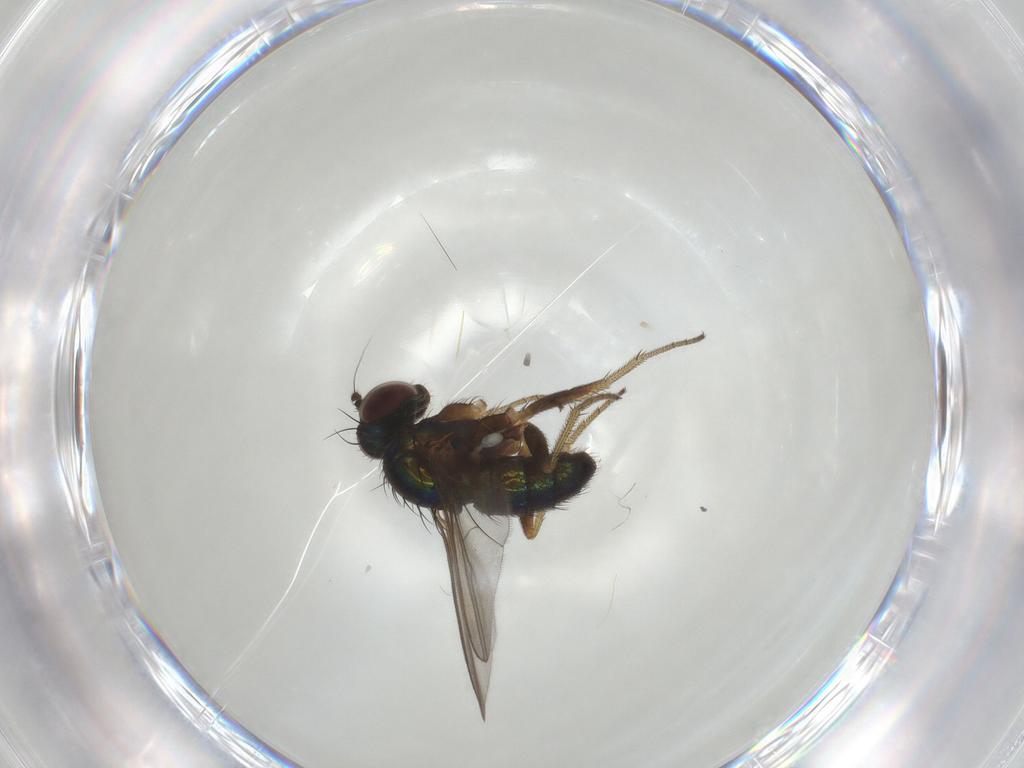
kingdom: Animalia
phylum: Arthropoda
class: Insecta
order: Diptera
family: Dolichopodidae
